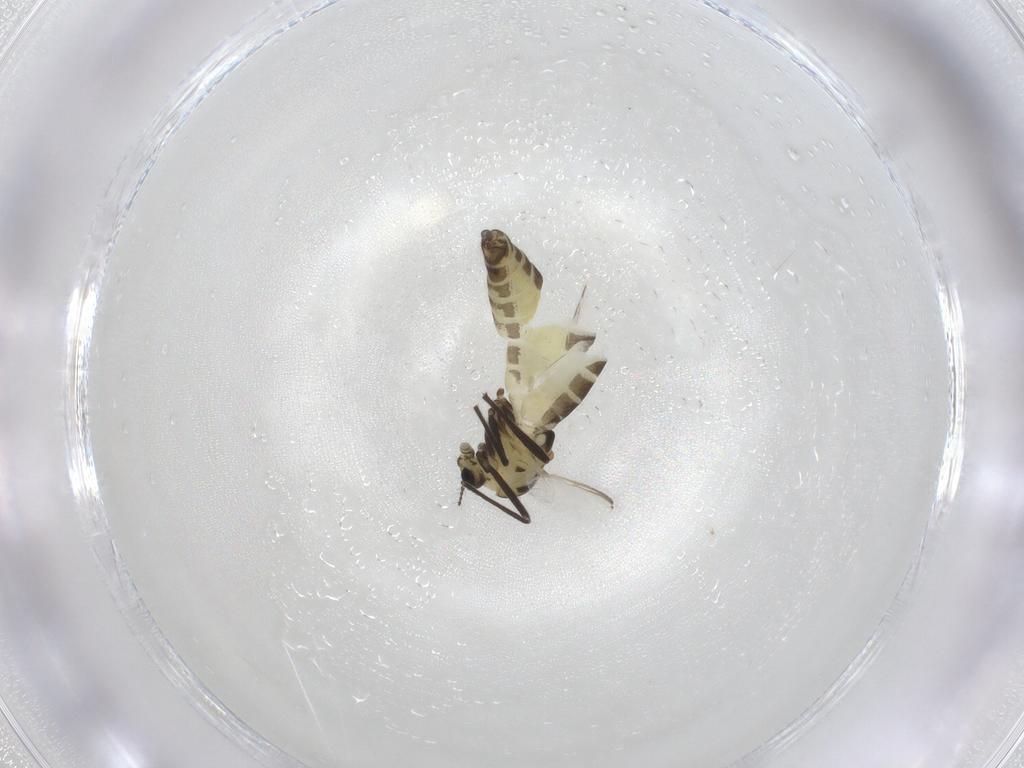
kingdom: Animalia
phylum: Arthropoda
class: Insecta
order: Diptera
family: Chironomidae
